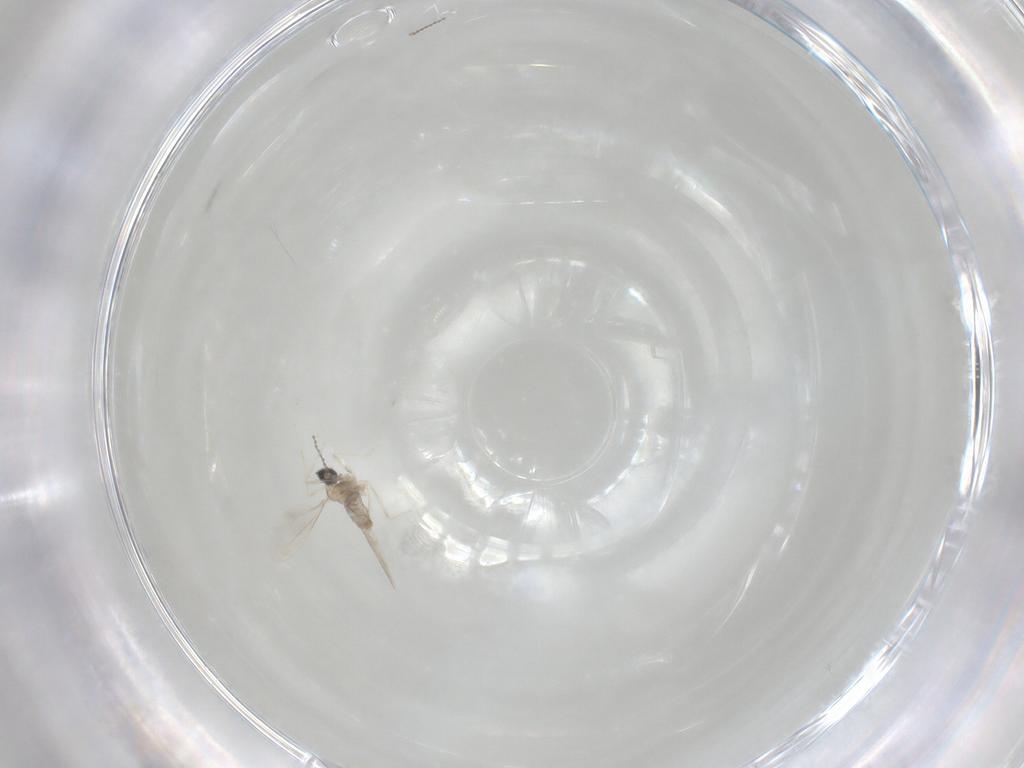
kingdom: Animalia
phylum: Arthropoda
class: Insecta
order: Diptera
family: Cecidomyiidae
